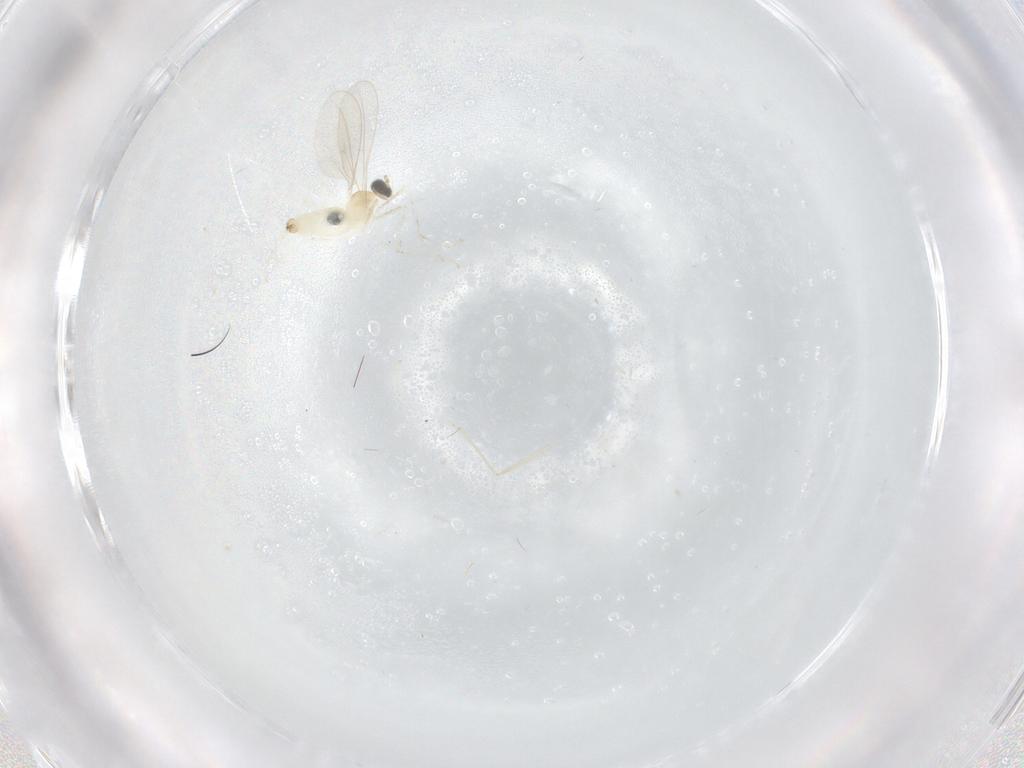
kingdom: Animalia
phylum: Arthropoda
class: Insecta
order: Diptera
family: Cecidomyiidae
